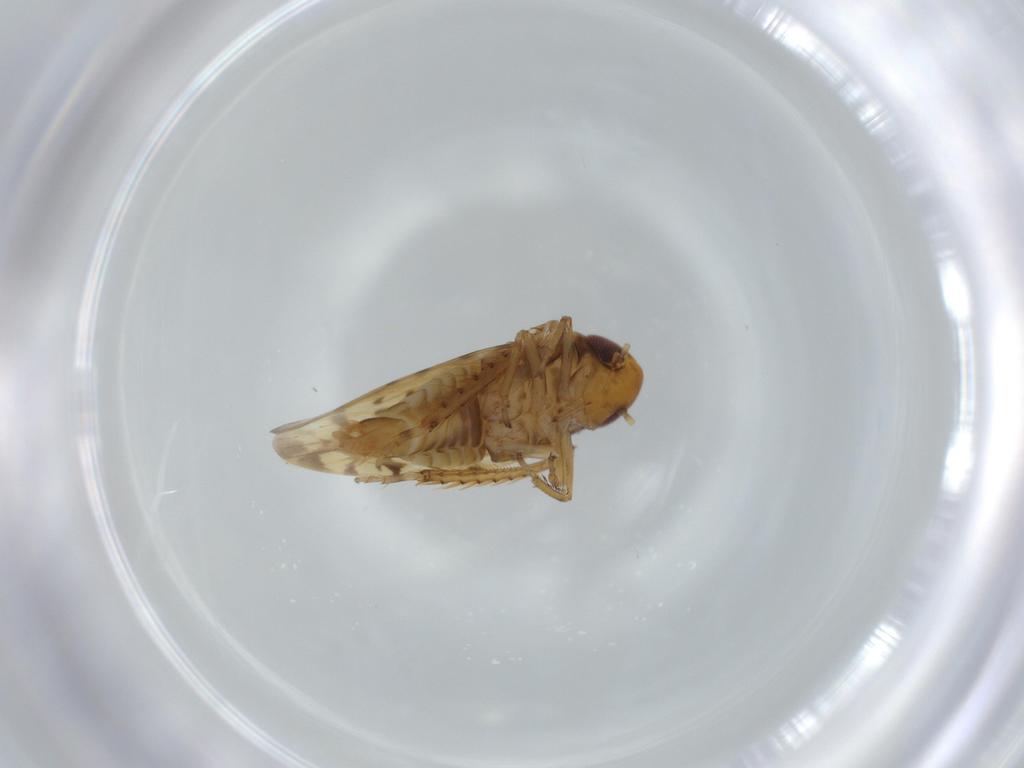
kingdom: Animalia
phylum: Arthropoda
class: Insecta
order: Hemiptera
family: Cicadellidae
